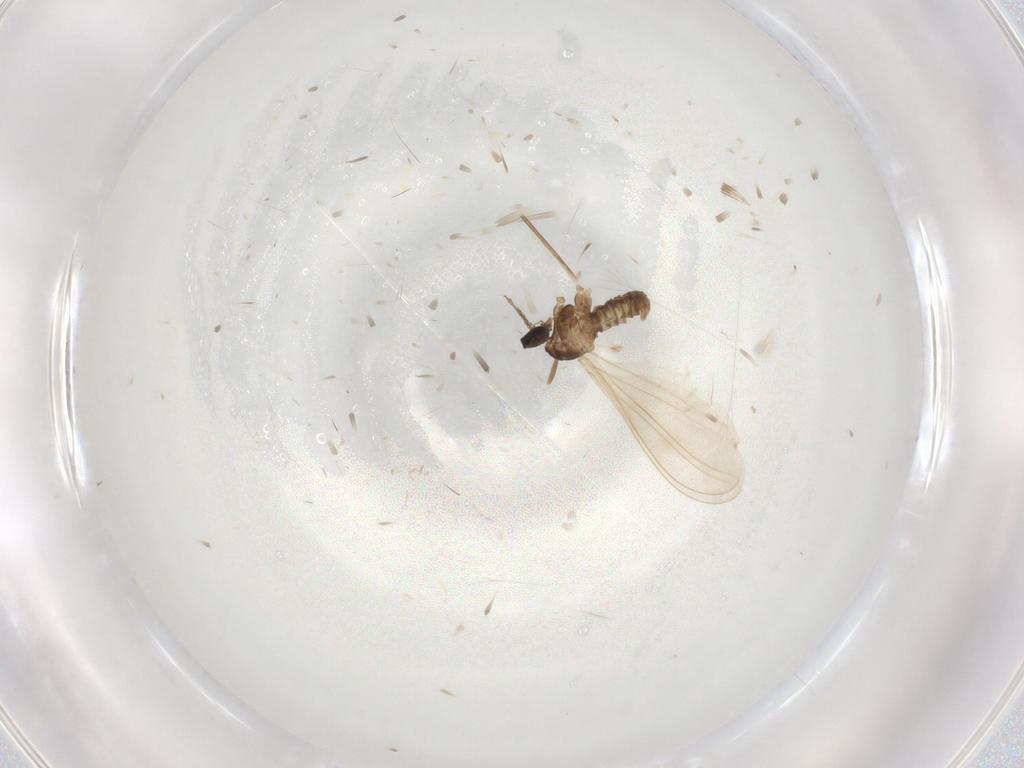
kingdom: Animalia
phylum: Arthropoda
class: Insecta
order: Diptera
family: Cecidomyiidae
